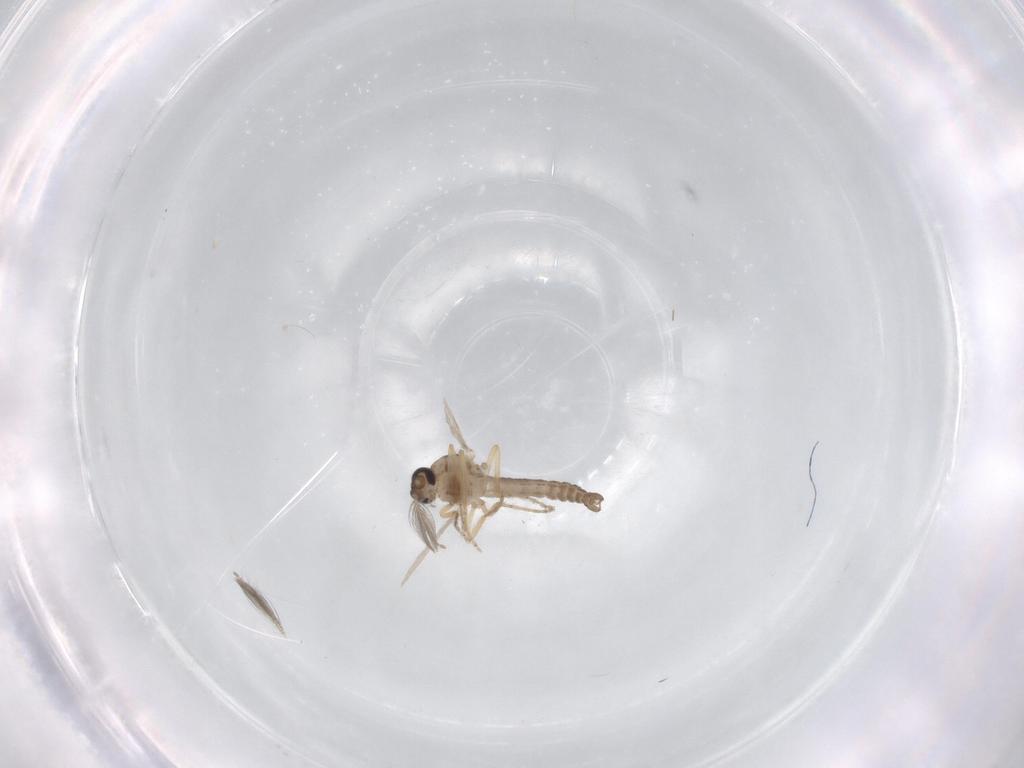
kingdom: Animalia
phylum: Arthropoda
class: Insecta
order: Diptera
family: Ceratopogonidae
